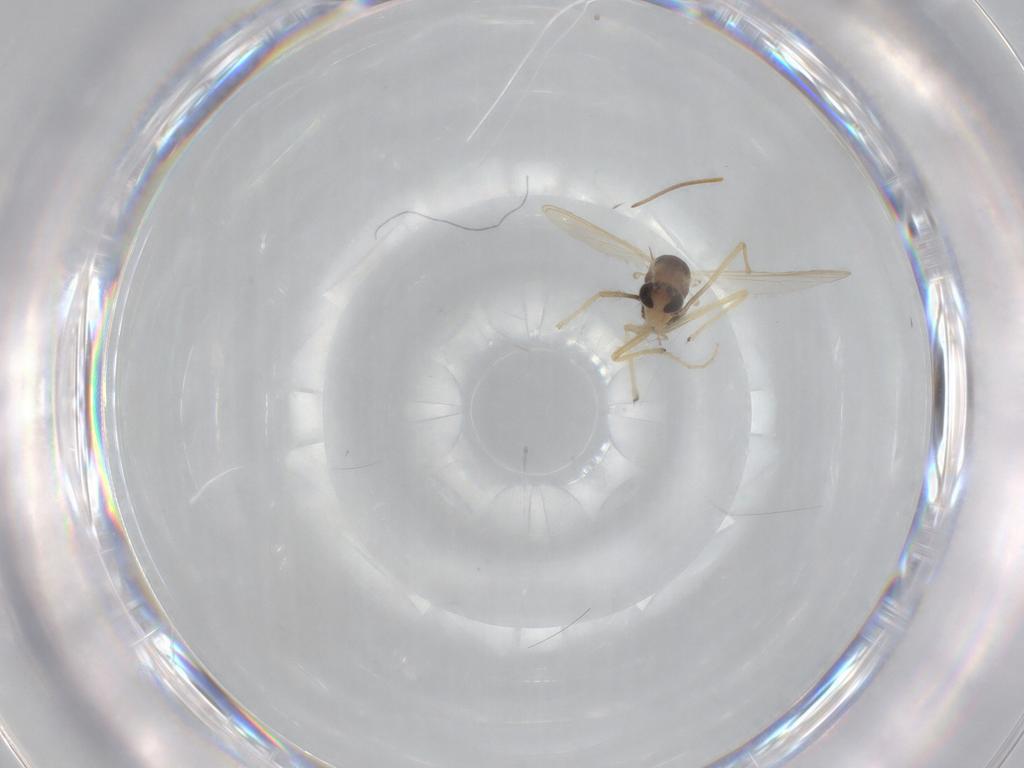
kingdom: Animalia
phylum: Arthropoda
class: Insecta
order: Diptera
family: Chironomidae
